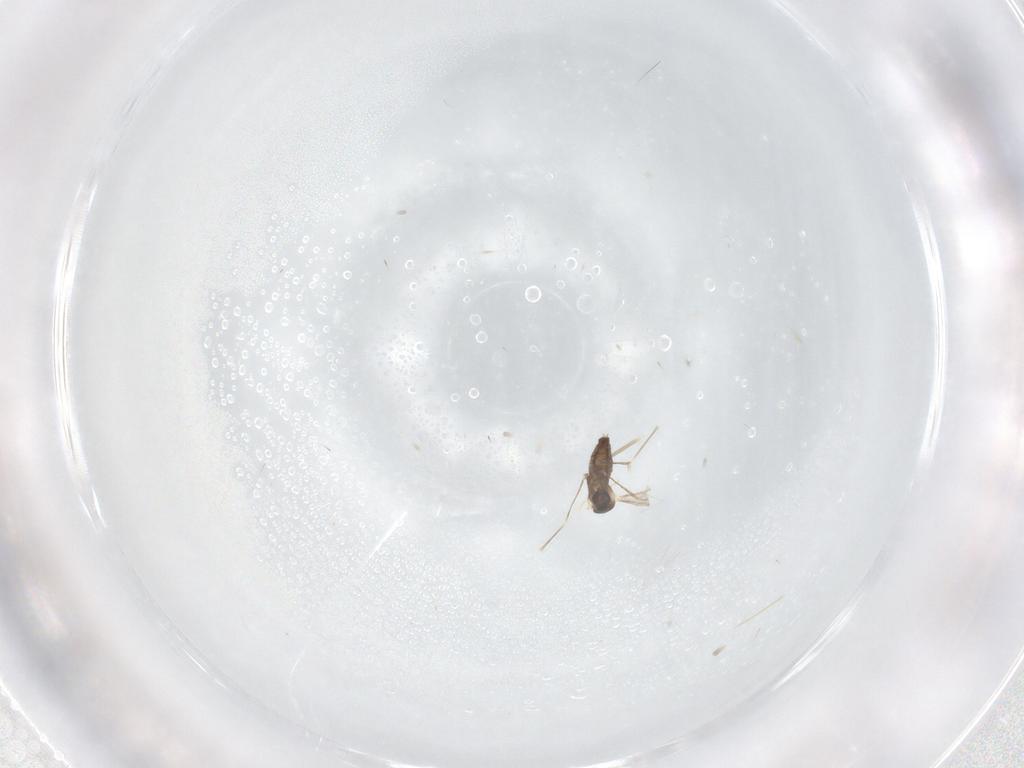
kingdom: Animalia
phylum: Arthropoda
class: Insecta
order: Diptera
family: Cecidomyiidae
